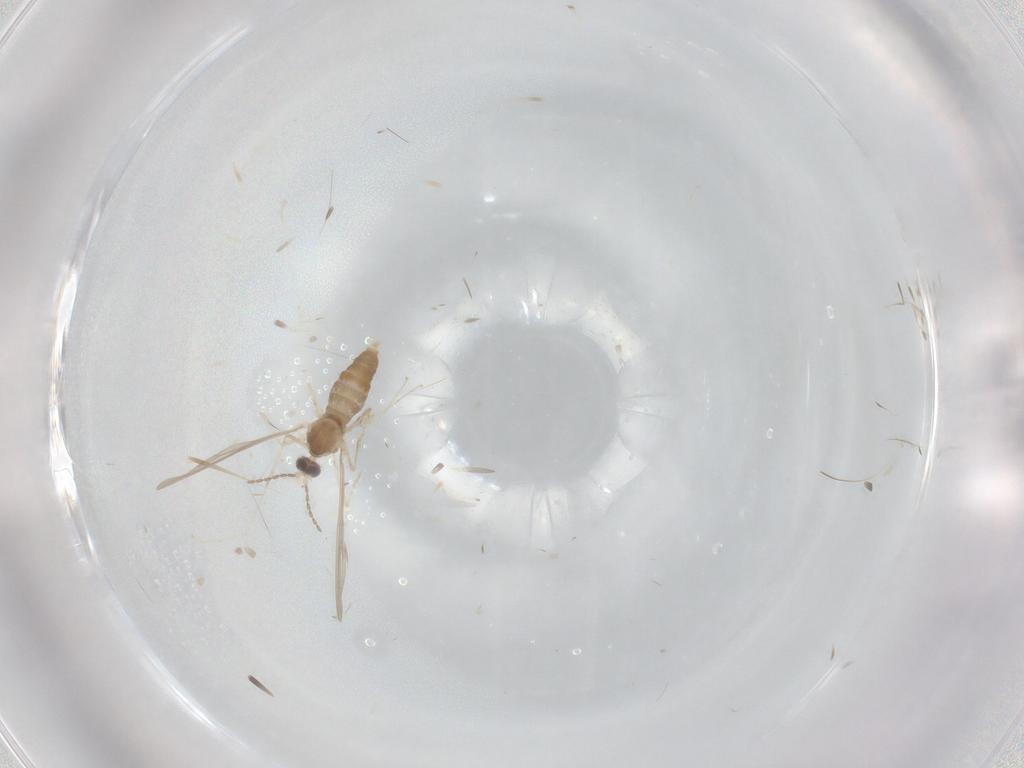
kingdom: Animalia
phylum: Arthropoda
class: Insecta
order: Diptera
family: Cecidomyiidae
